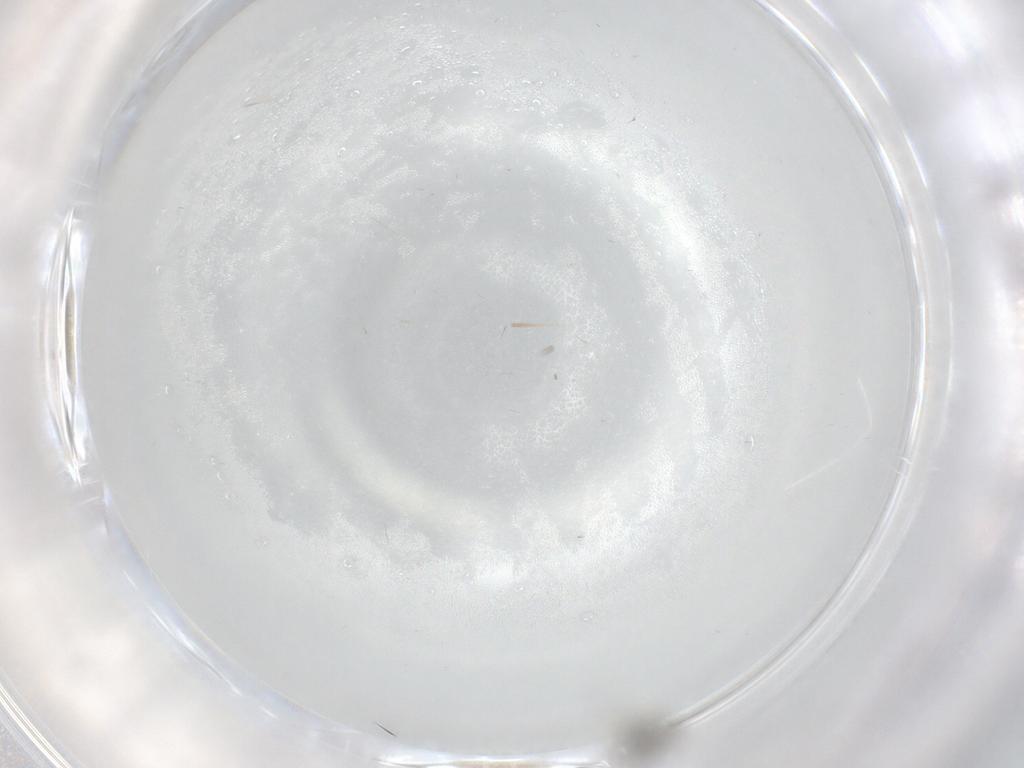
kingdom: Animalia
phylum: Arthropoda
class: Insecta
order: Diptera
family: Cecidomyiidae
